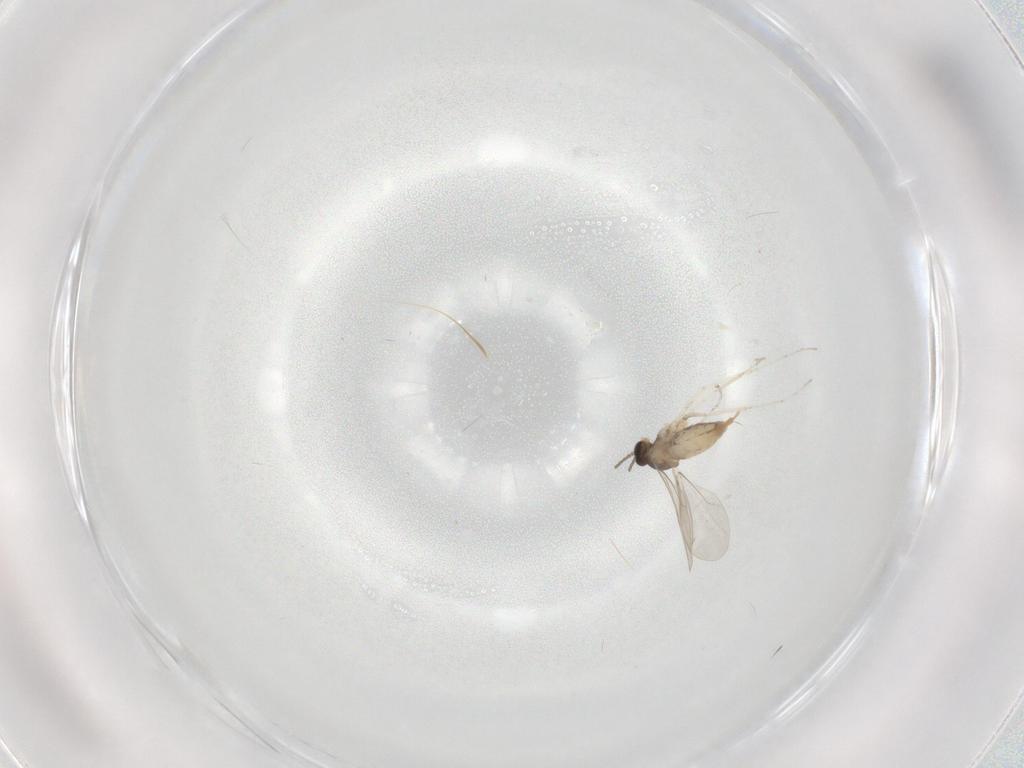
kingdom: Animalia
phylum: Arthropoda
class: Insecta
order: Diptera
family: Cecidomyiidae
